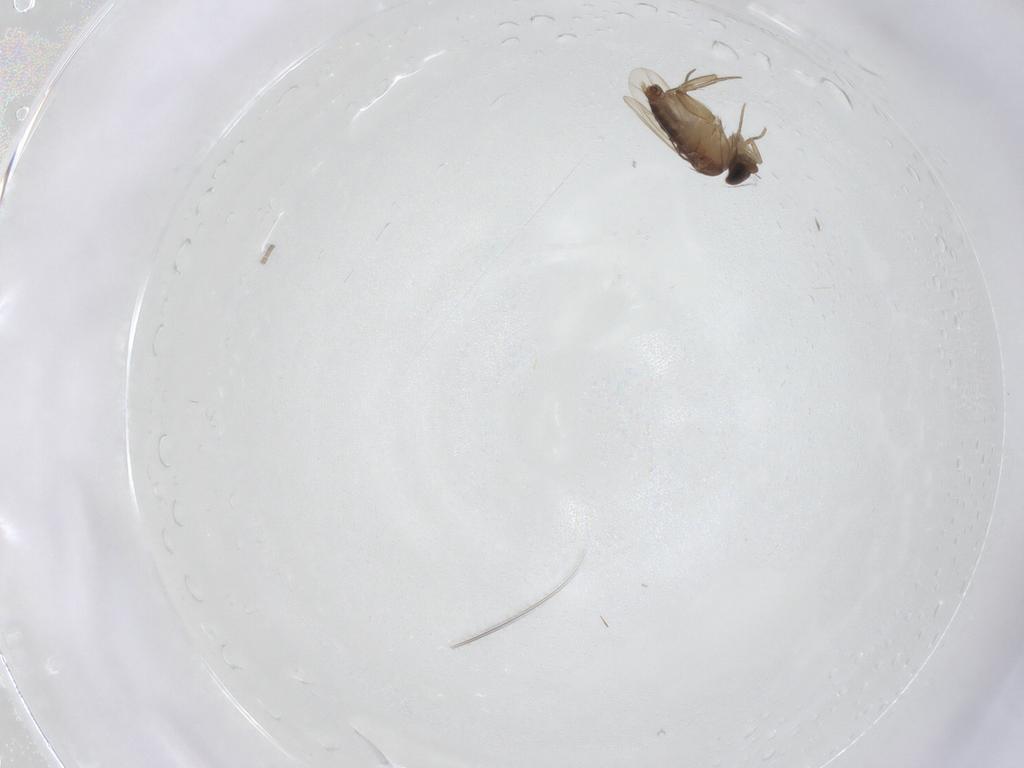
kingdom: Animalia
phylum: Arthropoda
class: Insecta
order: Diptera
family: Phoridae
